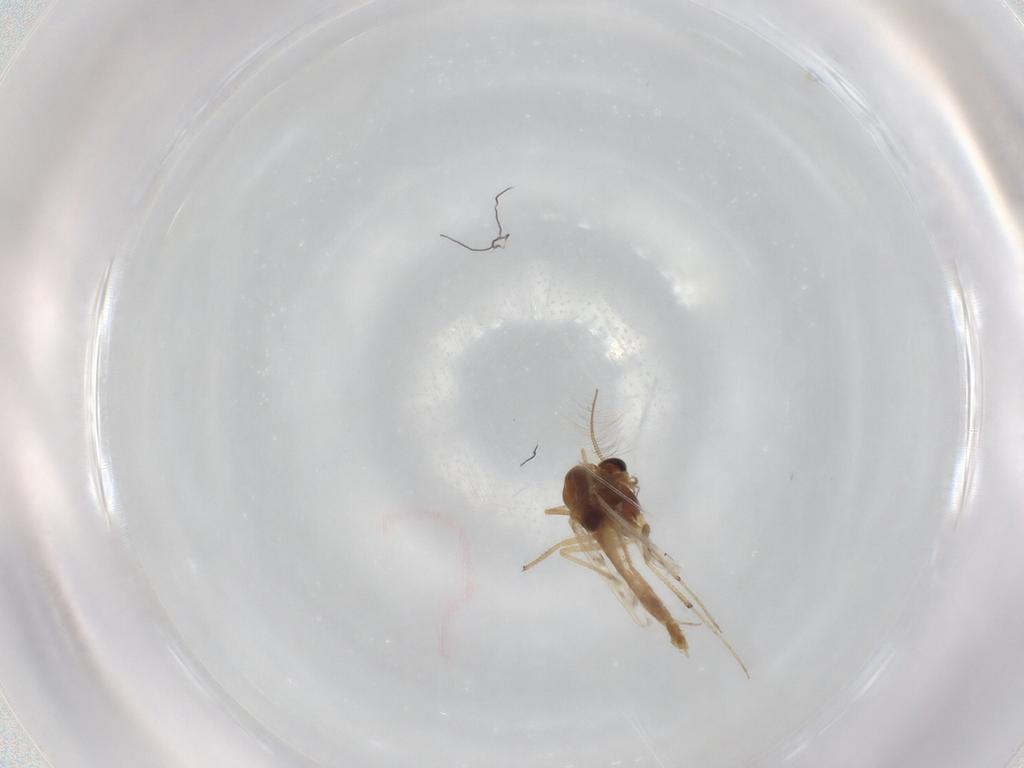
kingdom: Animalia
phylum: Arthropoda
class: Insecta
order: Diptera
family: Chironomidae
